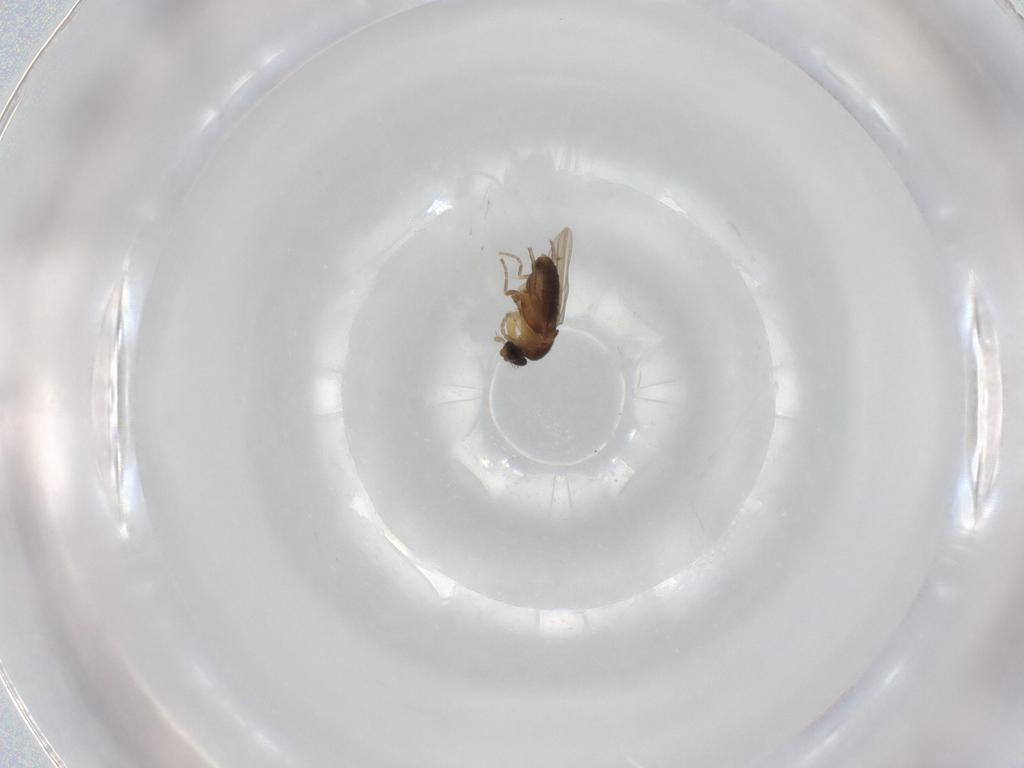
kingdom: Animalia
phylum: Arthropoda
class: Insecta
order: Diptera
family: Phoridae
